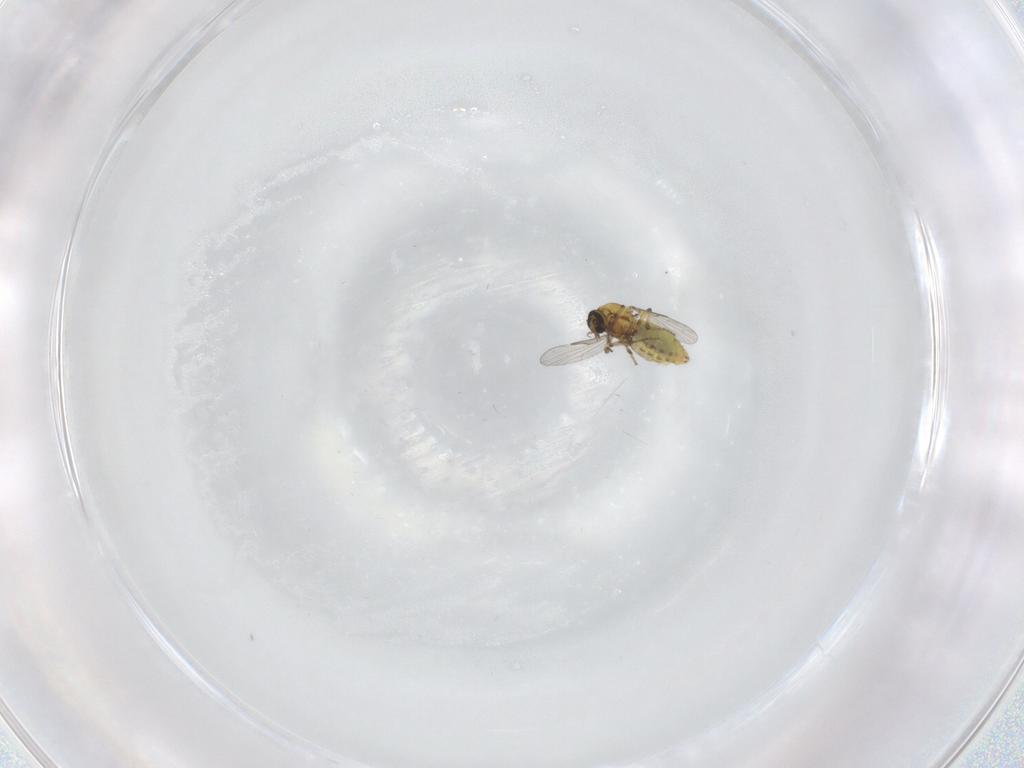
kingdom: Animalia
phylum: Arthropoda
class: Insecta
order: Diptera
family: Ceratopogonidae
